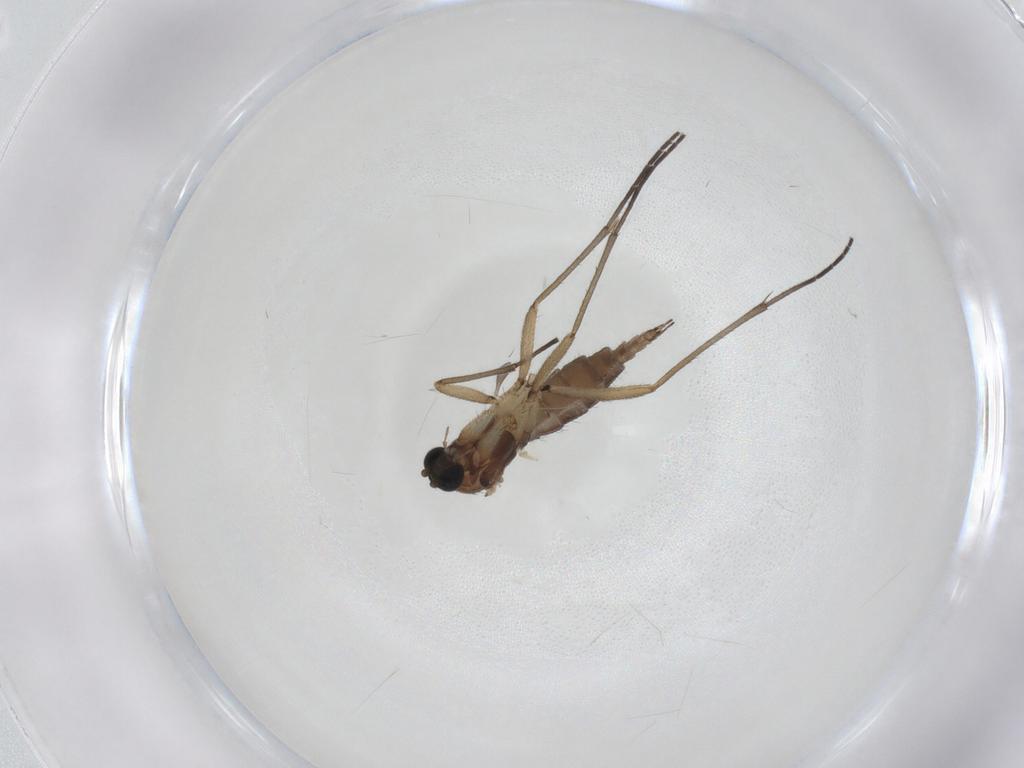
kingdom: Animalia
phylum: Arthropoda
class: Insecta
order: Diptera
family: Sciaridae
